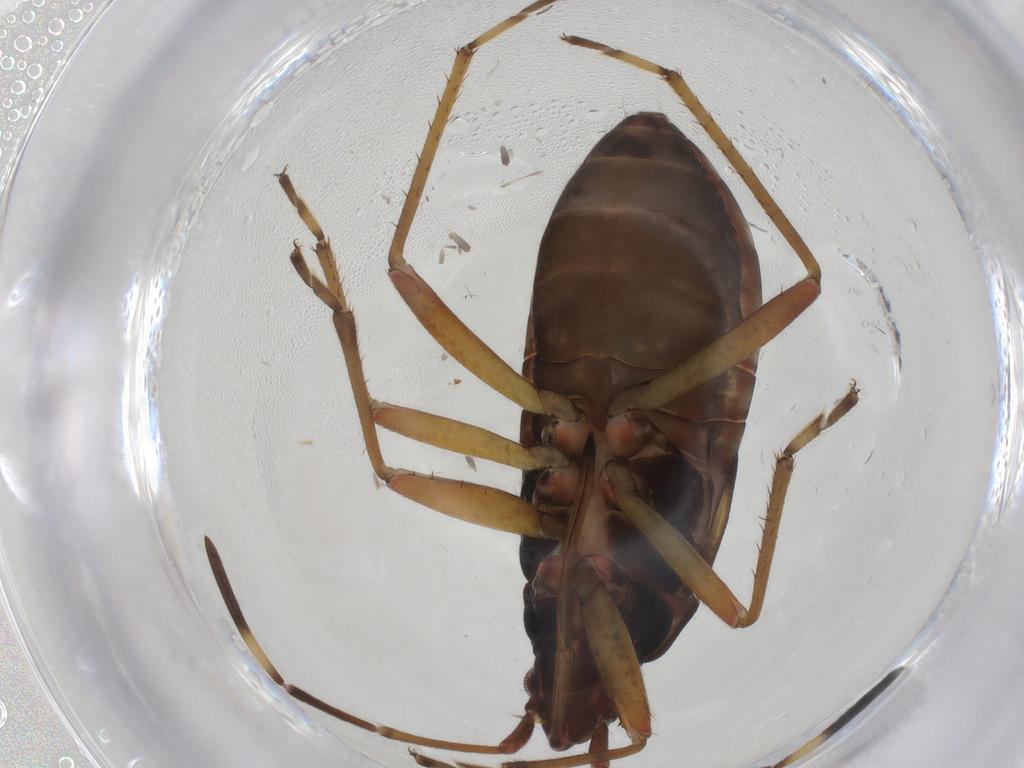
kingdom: Animalia
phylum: Arthropoda
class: Insecta
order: Hemiptera
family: Rhyparochromidae
